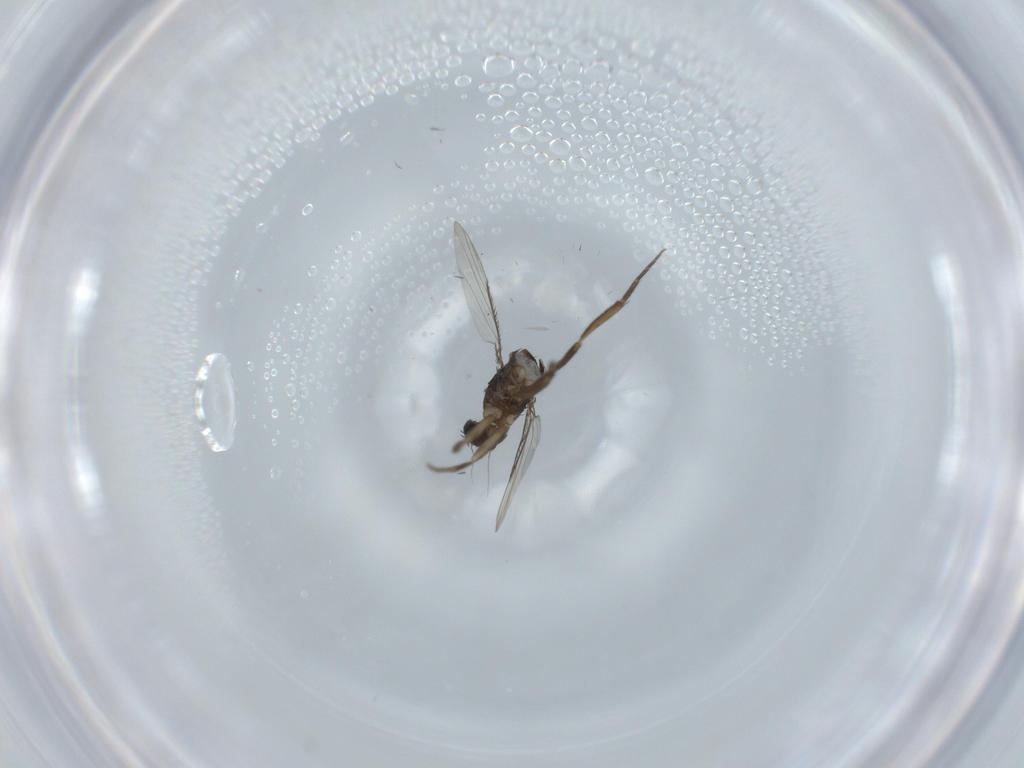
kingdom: Animalia
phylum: Arthropoda
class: Insecta
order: Diptera
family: Phoridae
